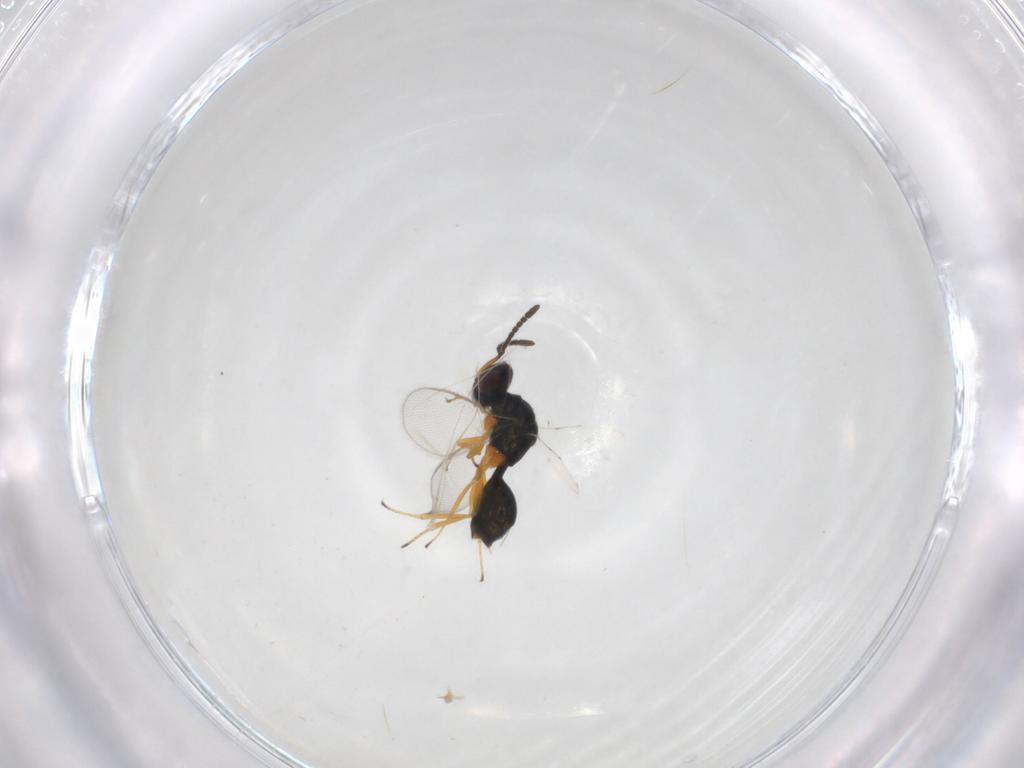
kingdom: Animalia
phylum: Arthropoda
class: Insecta
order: Hymenoptera
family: Pteromalidae
